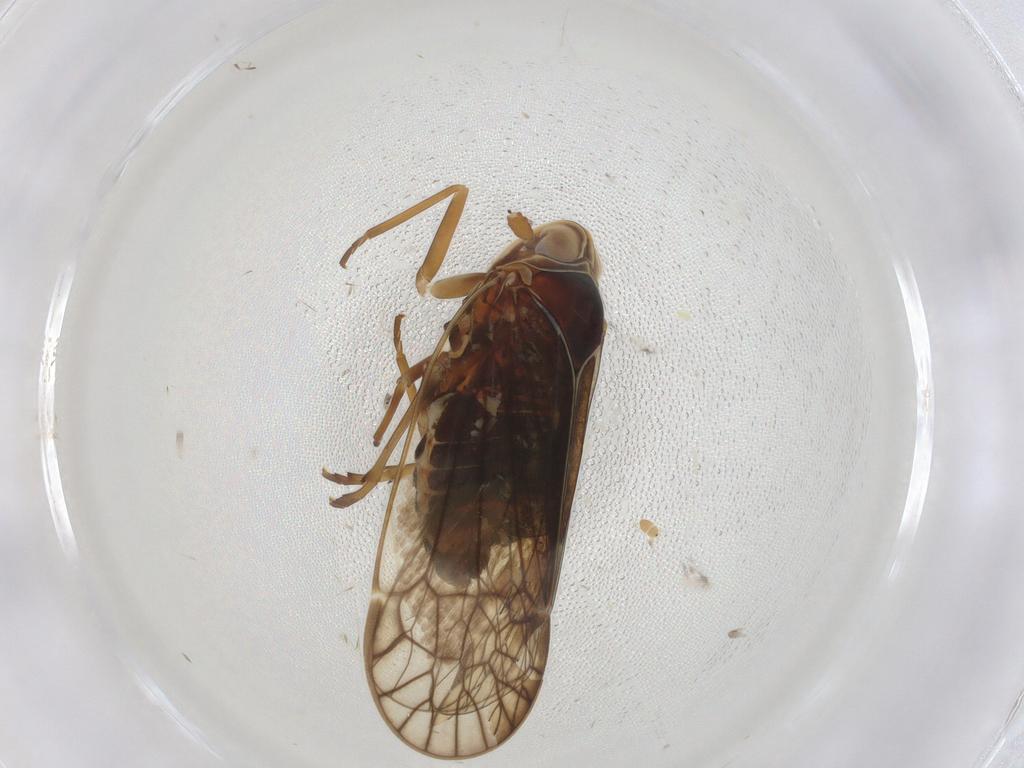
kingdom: Animalia
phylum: Arthropoda
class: Insecta
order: Hemiptera
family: Kinnaridae
